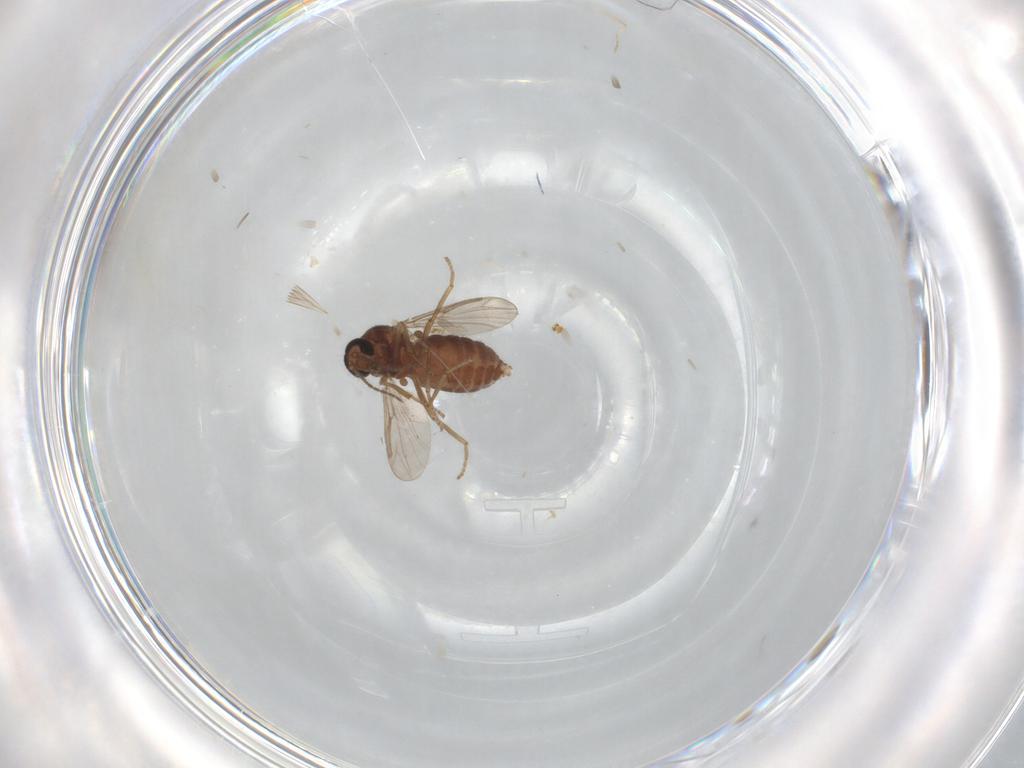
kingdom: Animalia
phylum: Arthropoda
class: Insecta
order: Diptera
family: Ceratopogonidae
